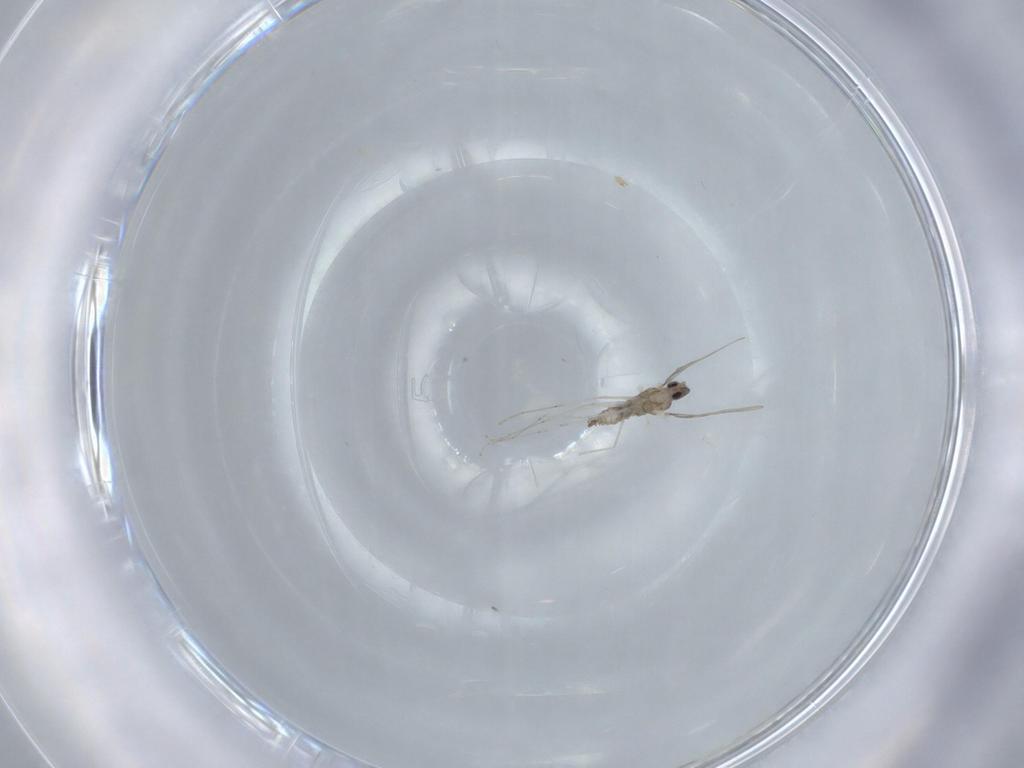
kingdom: Animalia
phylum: Arthropoda
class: Insecta
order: Diptera
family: Cecidomyiidae
